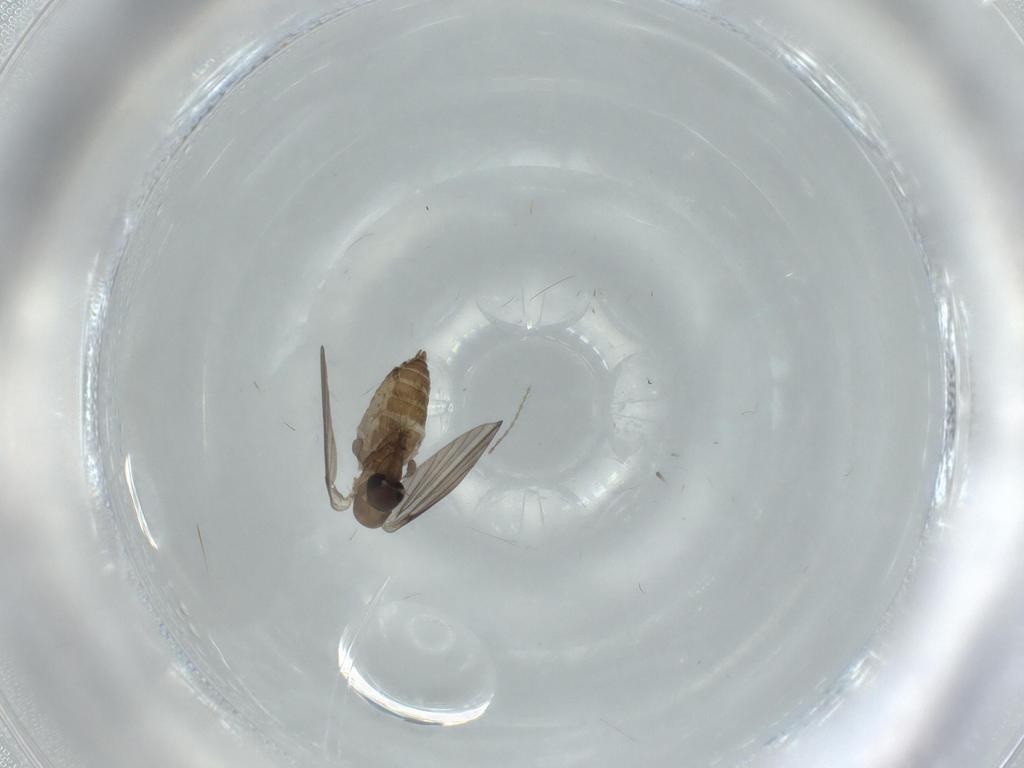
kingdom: Animalia
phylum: Arthropoda
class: Insecta
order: Diptera
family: Psychodidae
